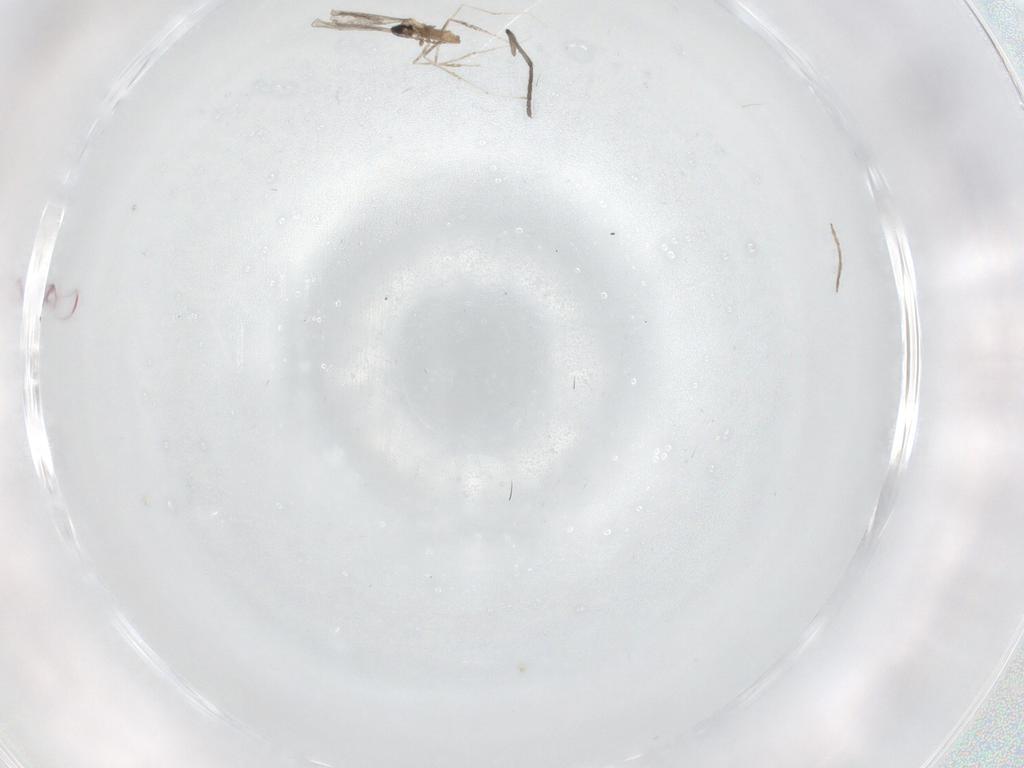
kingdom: Animalia
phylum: Arthropoda
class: Insecta
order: Diptera
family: Sciaridae
